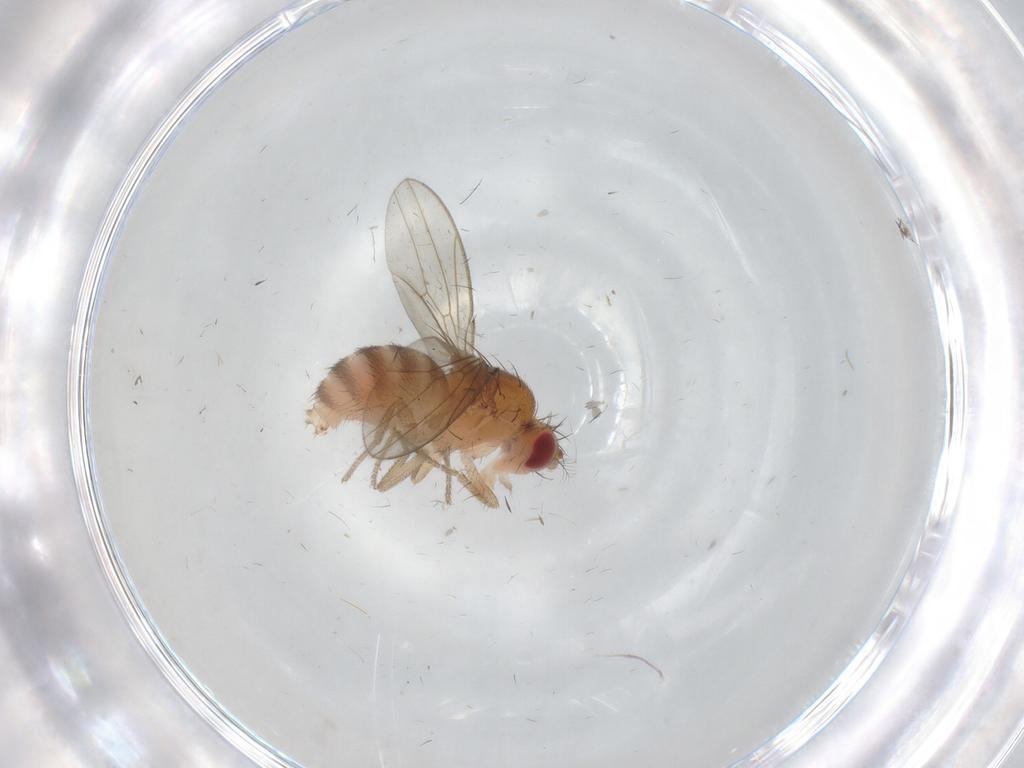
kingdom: Animalia
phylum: Arthropoda
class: Insecta
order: Diptera
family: Drosophilidae
